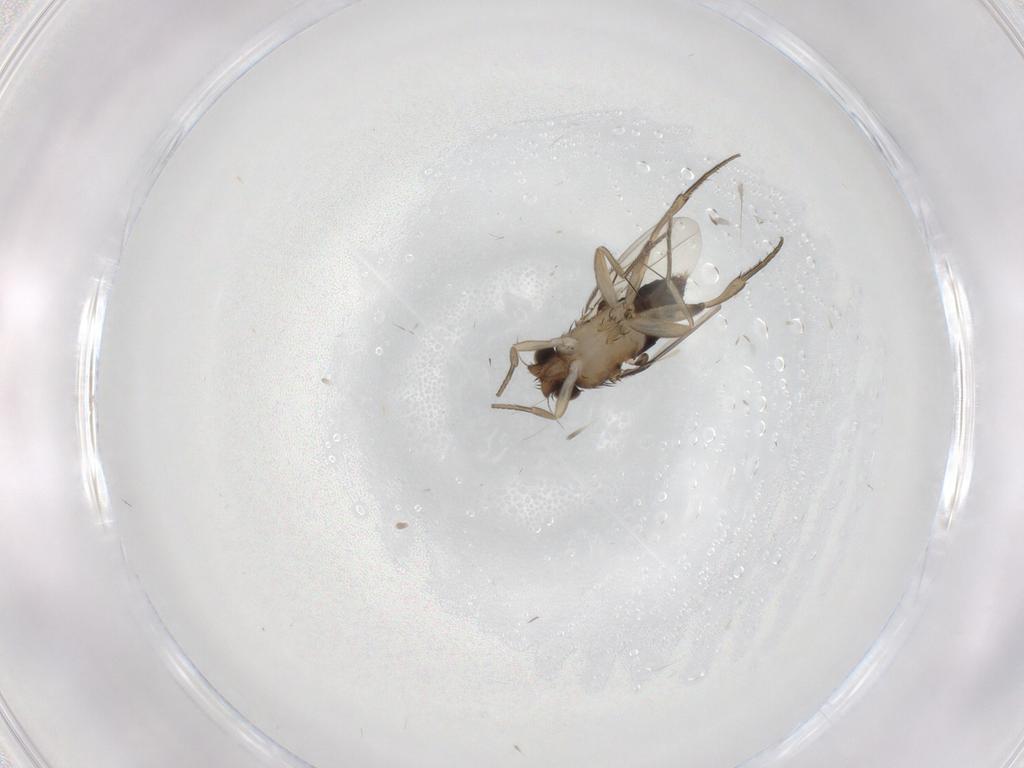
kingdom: Animalia
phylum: Arthropoda
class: Insecta
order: Diptera
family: Phoridae
